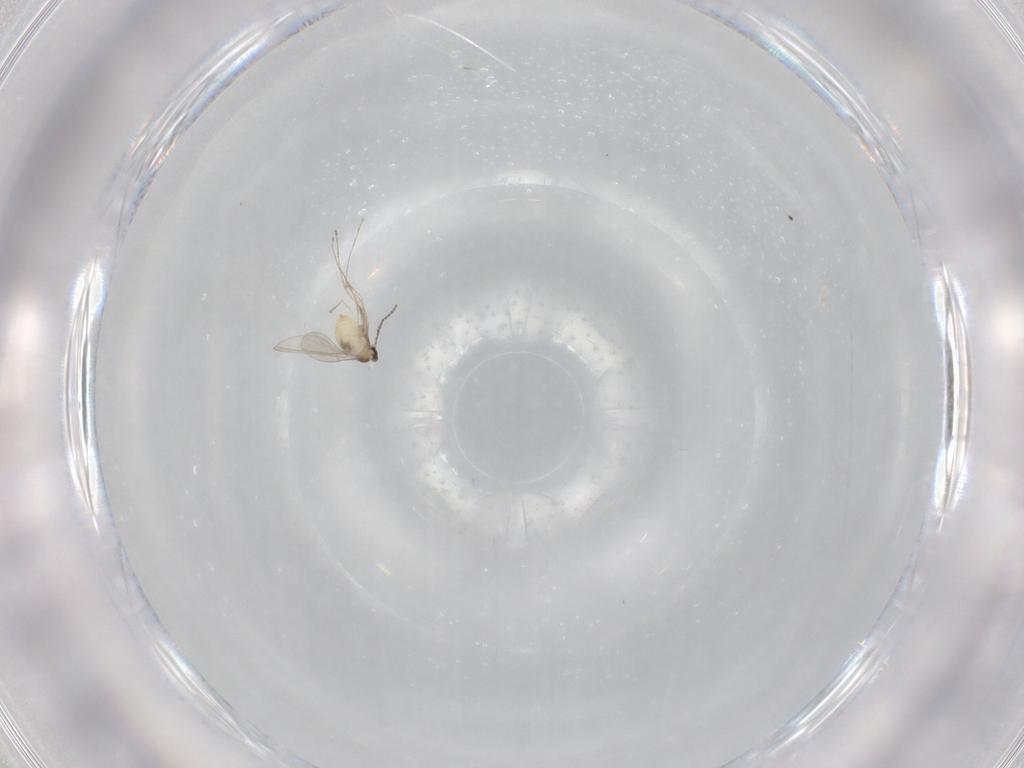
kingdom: Animalia
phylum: Arthropoda
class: Insecta
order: Diptera
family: Cecidomyiidae
